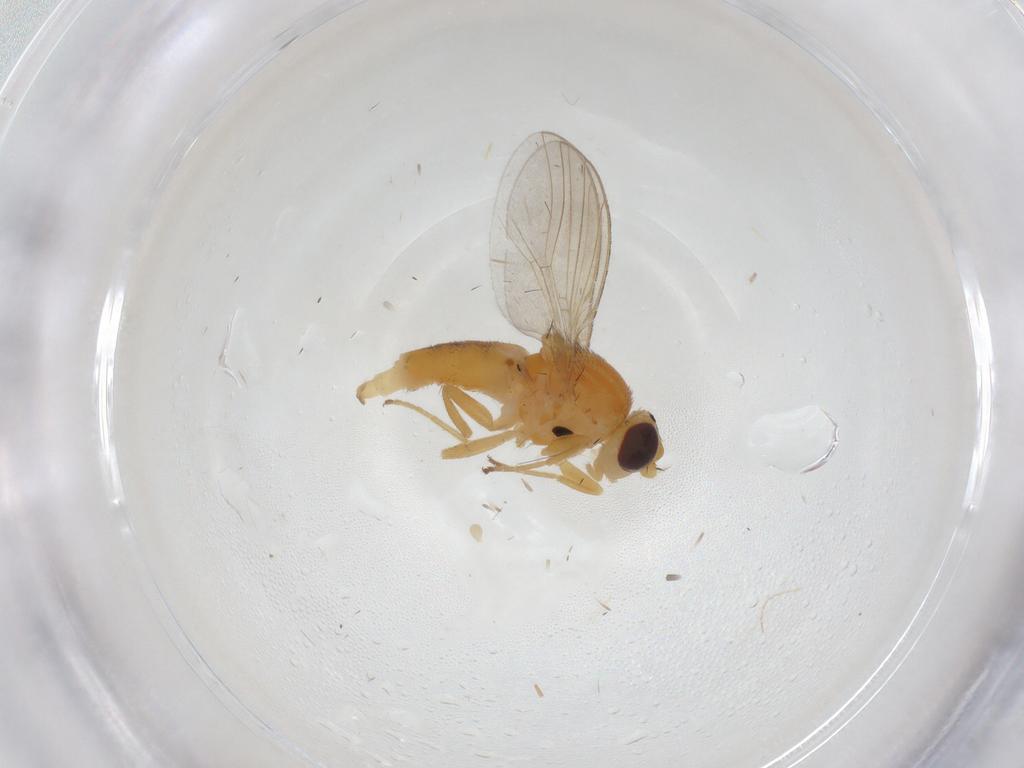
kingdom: Animalia
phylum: Arthropoda
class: Insecta
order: Diptera
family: Chloropidae
